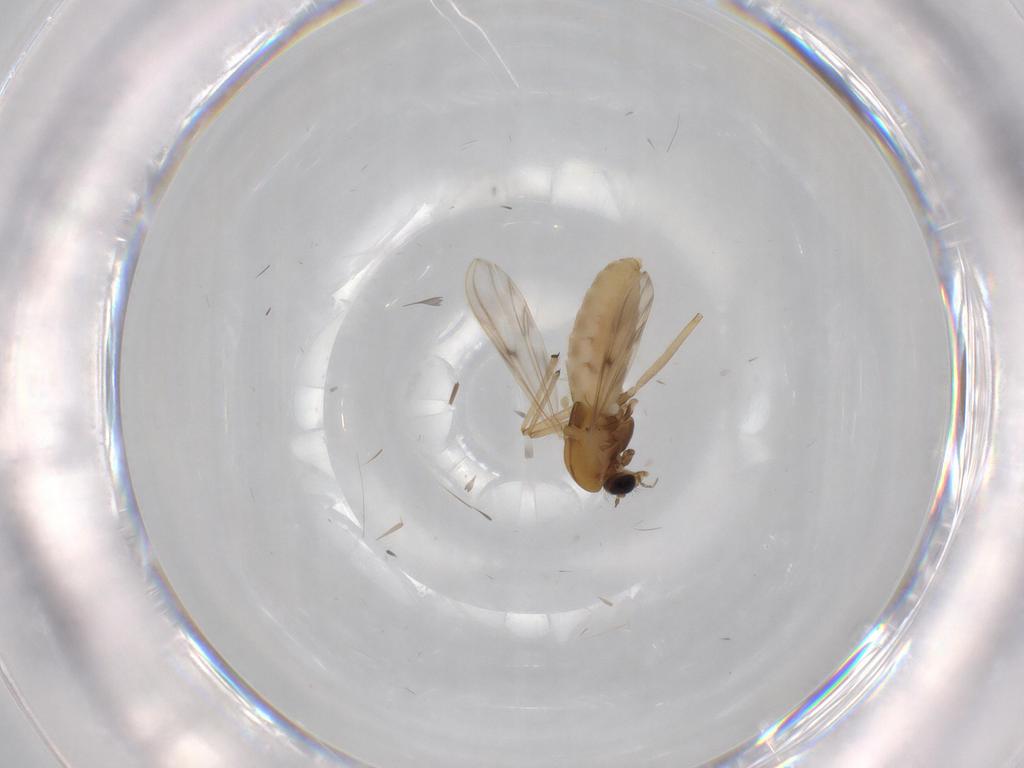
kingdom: Animalia
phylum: Arthropoda
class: Insecta
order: Diptera
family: Chironomidae
